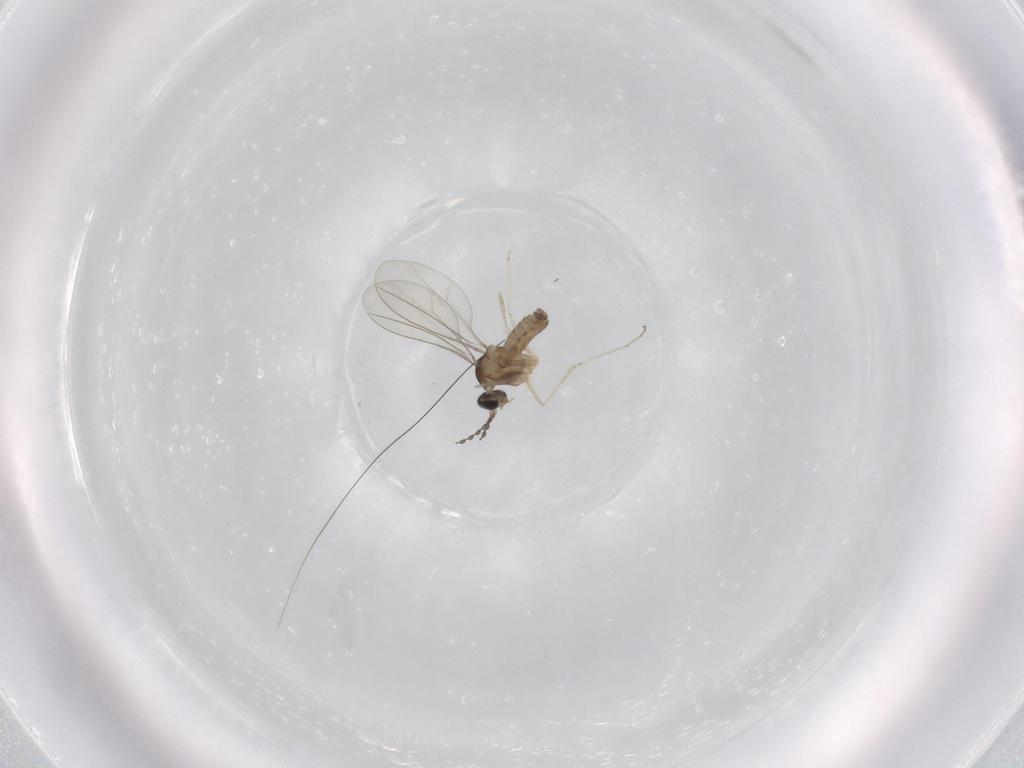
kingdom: Animalia
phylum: Arthropoda
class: Insecta
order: Diptera
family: Cecidomyiidae
